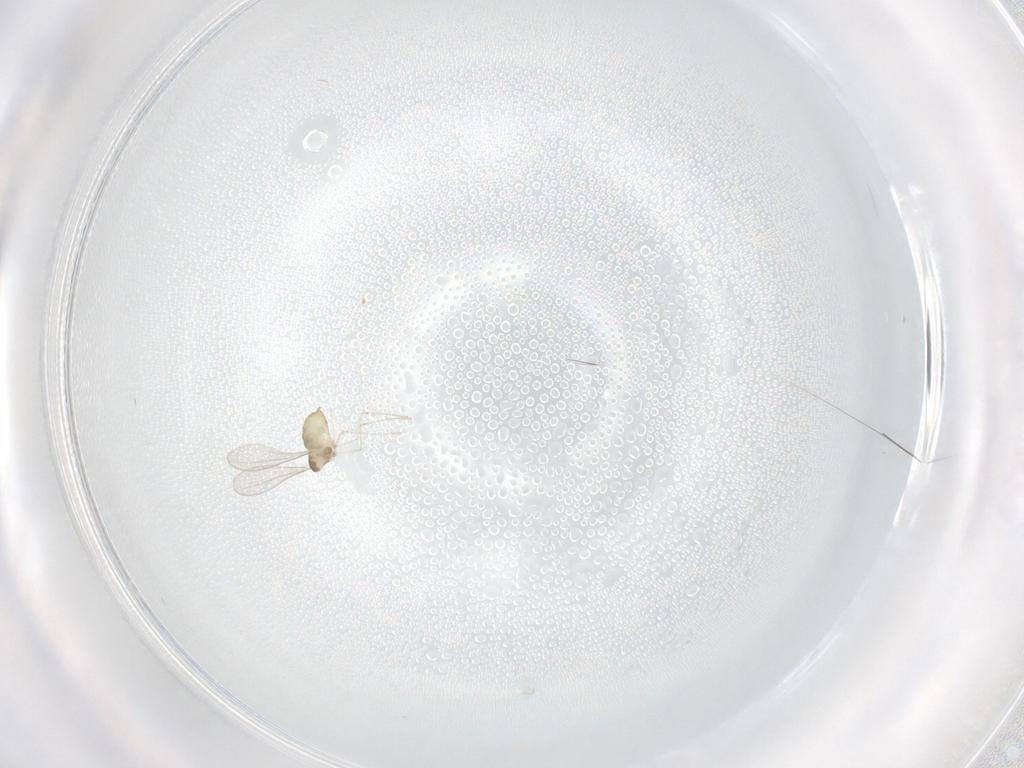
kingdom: Animalia
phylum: Arthropoda
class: Insecta
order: Diptera
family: Cecidomyiidae
